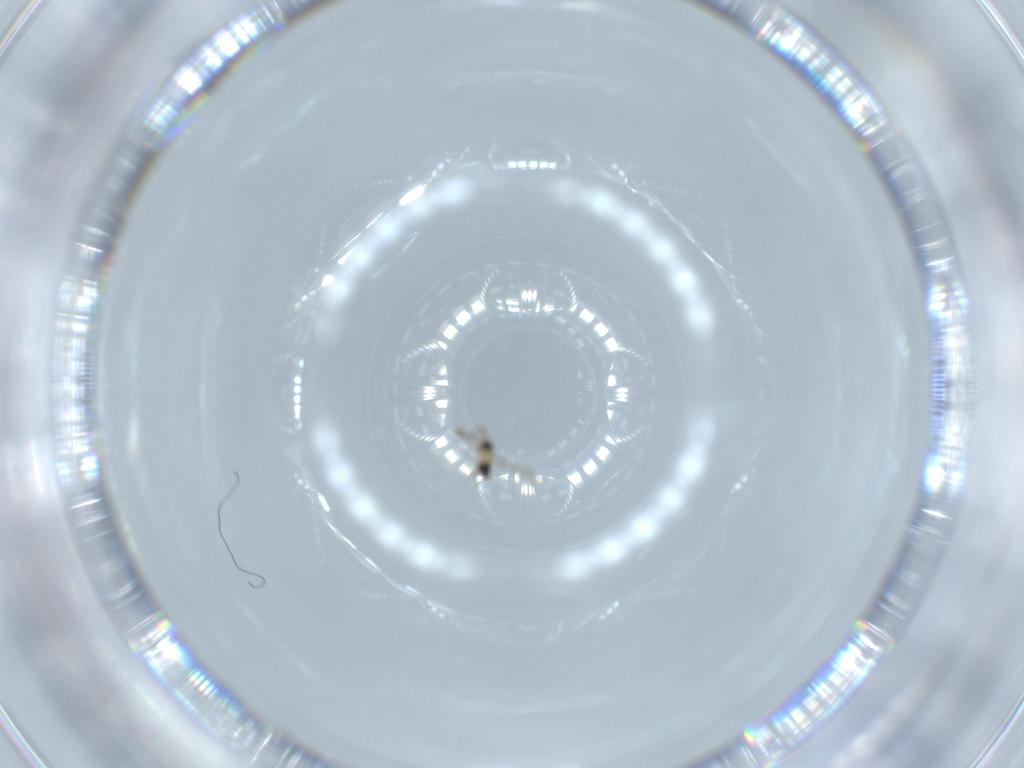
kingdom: Animalia
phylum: Arthropoda
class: Insecta
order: Hymenoptera
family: Mymaridae
